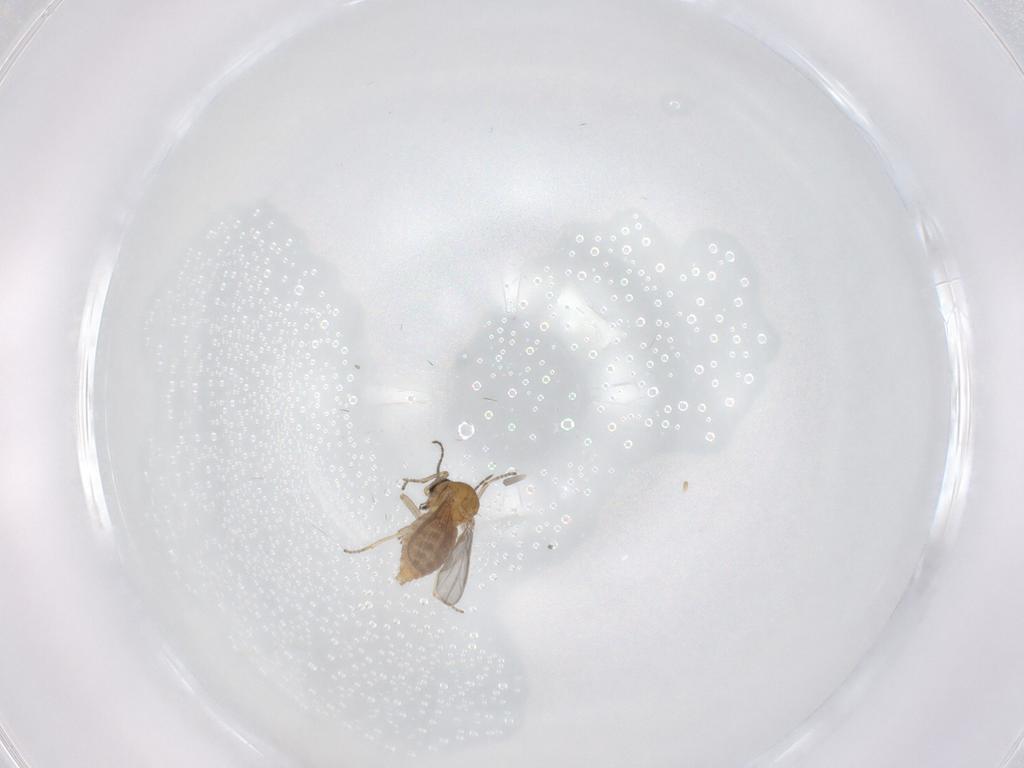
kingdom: Animalia
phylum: Arthropoda
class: Insecta
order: Diptera
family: Ceratopogonidae
